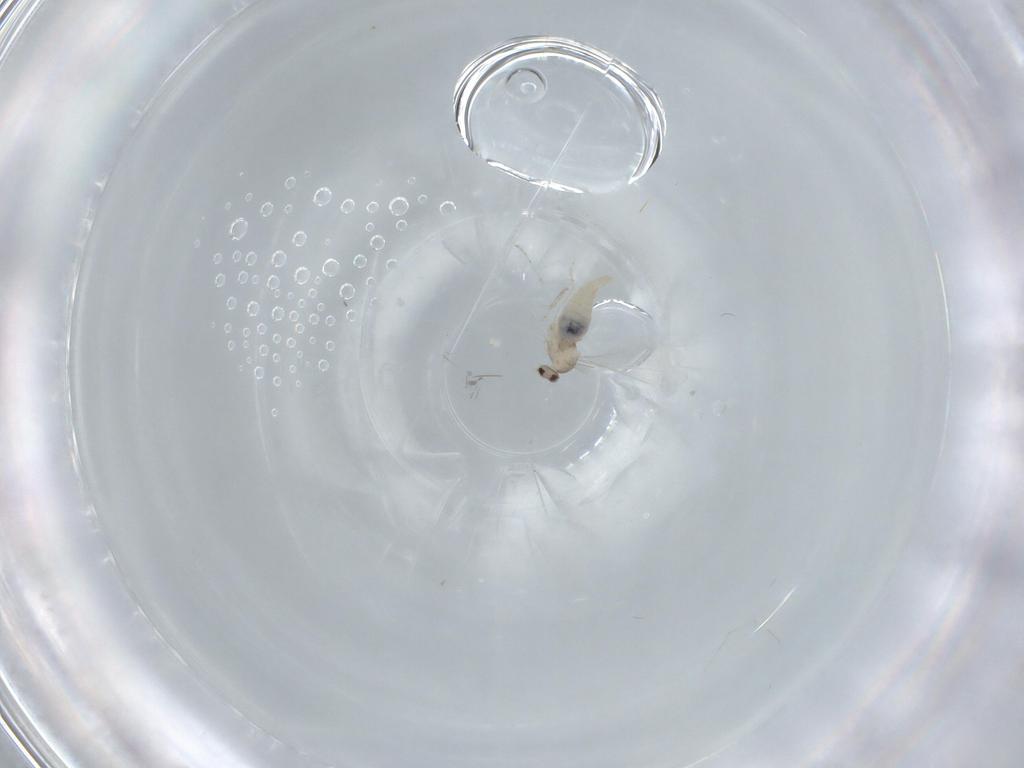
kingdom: Animalia
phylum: Arthropoda
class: Insecta
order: Diptera
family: Cecidomyiidae
